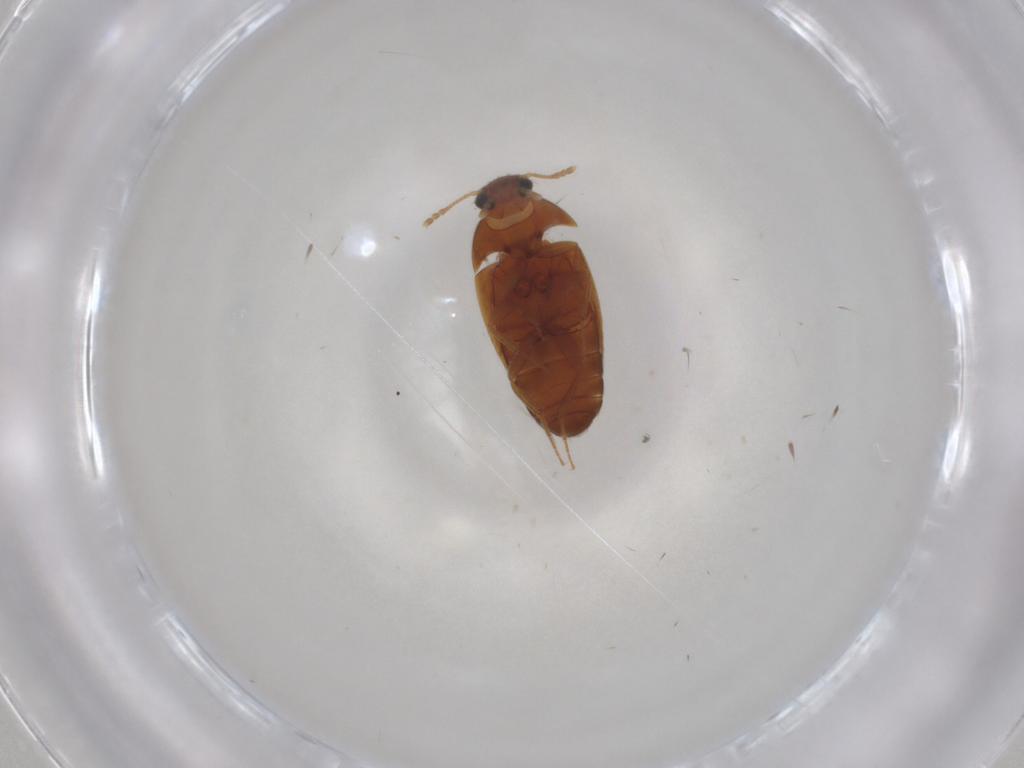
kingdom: Animalia
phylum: Arthropoda
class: Insecta
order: Coleoptera
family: Mycetophagidae
